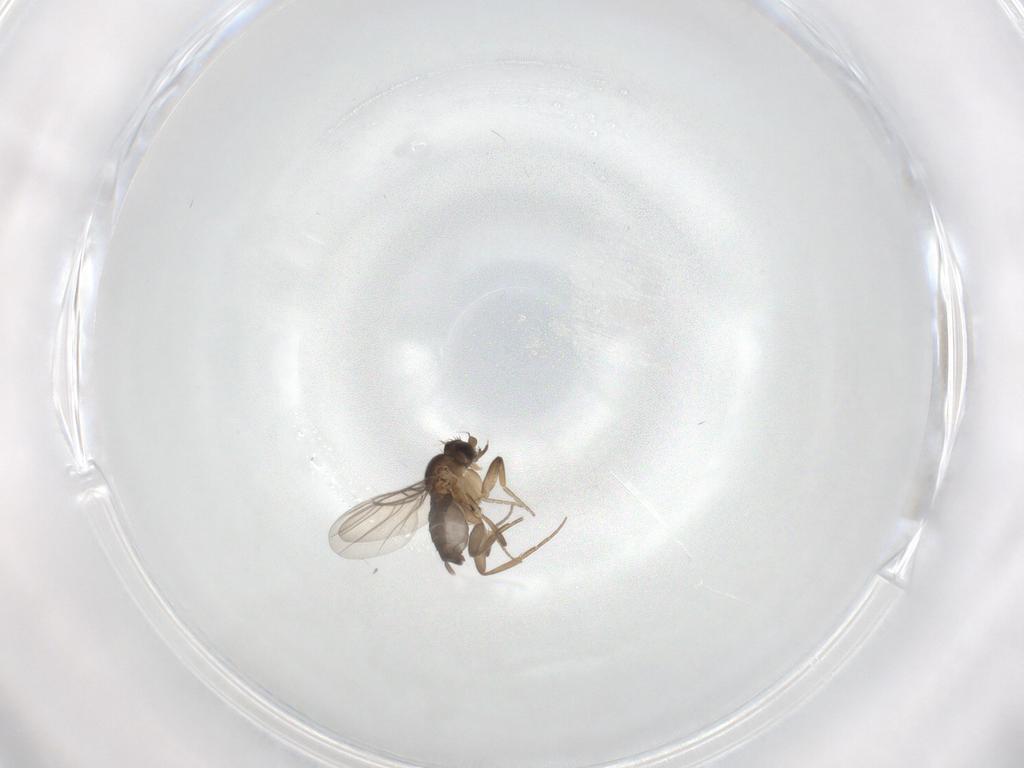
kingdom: Animalia
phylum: Arthropoda
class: Insecta
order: Diptera
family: Phoridae
